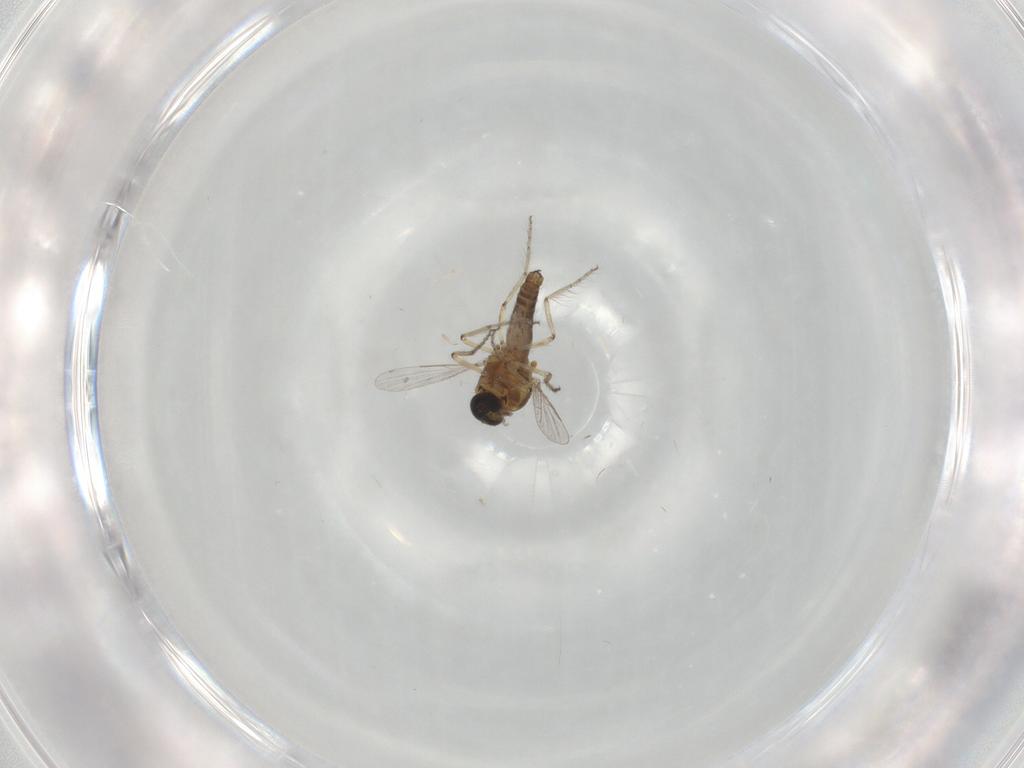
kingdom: Animalia
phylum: Arthropoda
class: Insecta
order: Diptera
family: Ceratopogonidae
